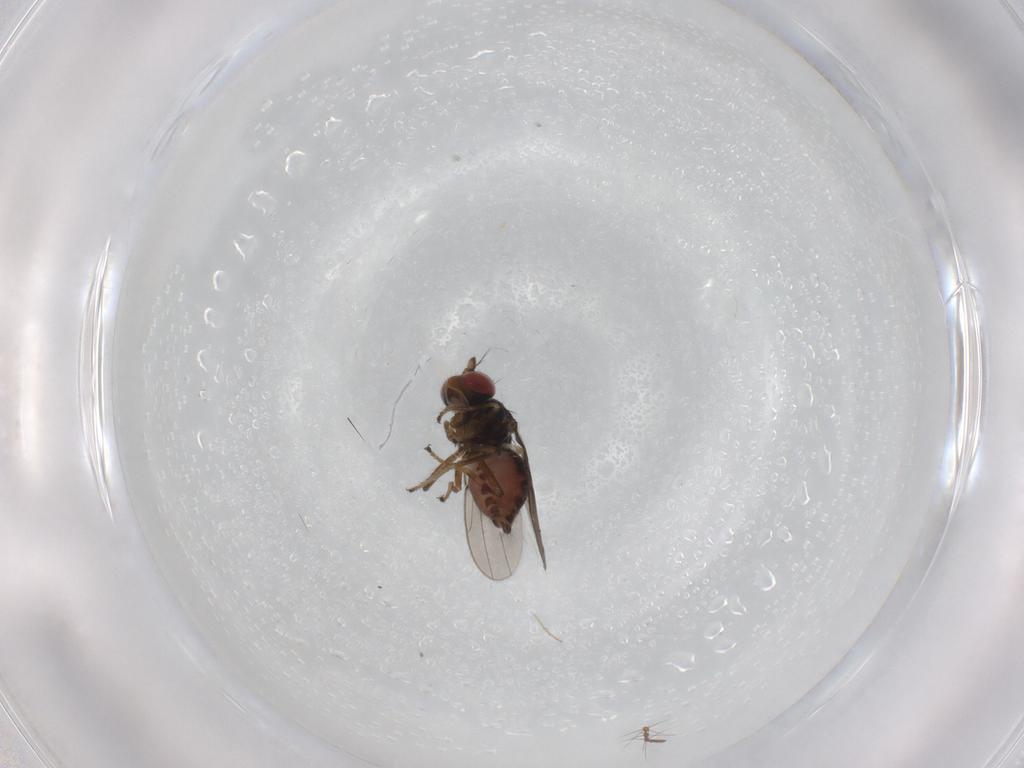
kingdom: Animalia
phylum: Arthropoda
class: Insecta
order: Diptera
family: Ephydridae
